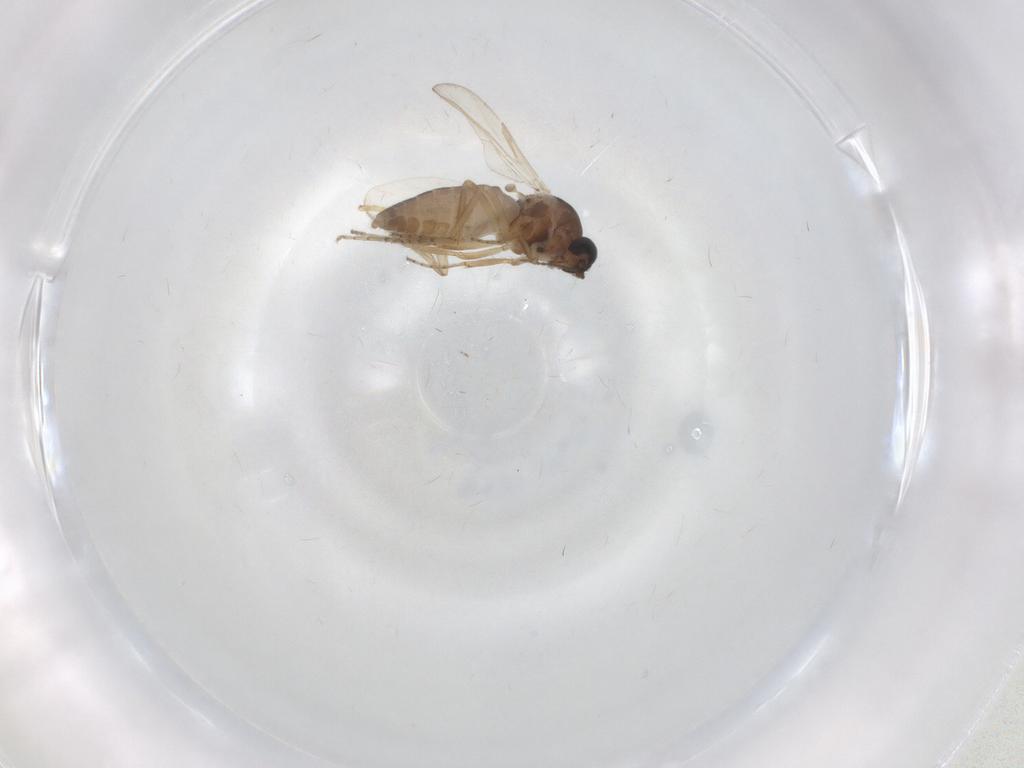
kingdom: Animalia
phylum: Arthropoda
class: Insecta
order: Diptera
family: Ceratopogonidae
